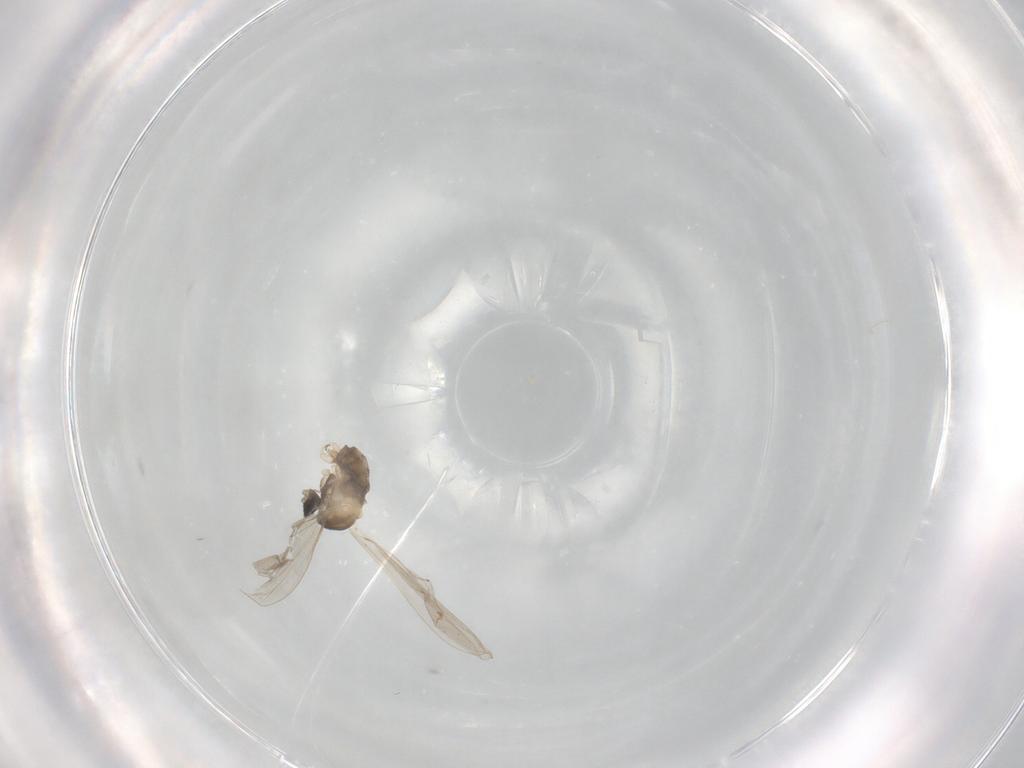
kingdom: Animalia
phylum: Arthropoda
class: Insecta
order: Diptera
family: Cecidomyiidae
